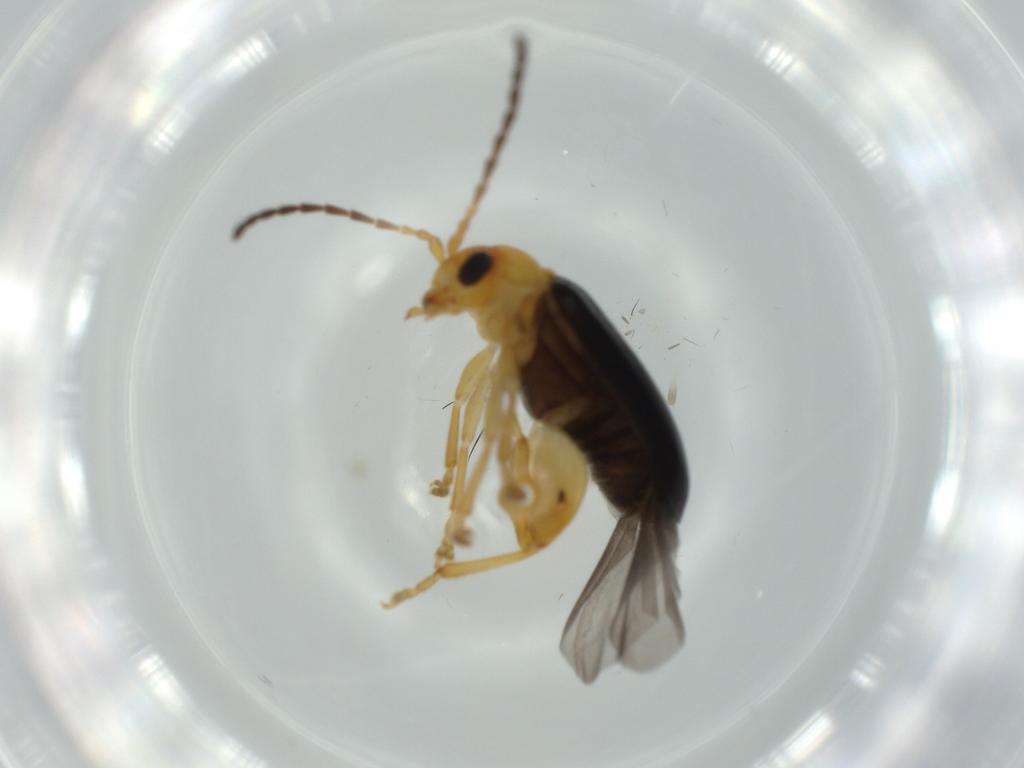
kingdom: Animalia
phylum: Arthropoda
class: Insecta
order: Coleoptera
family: Chrysomelidae
